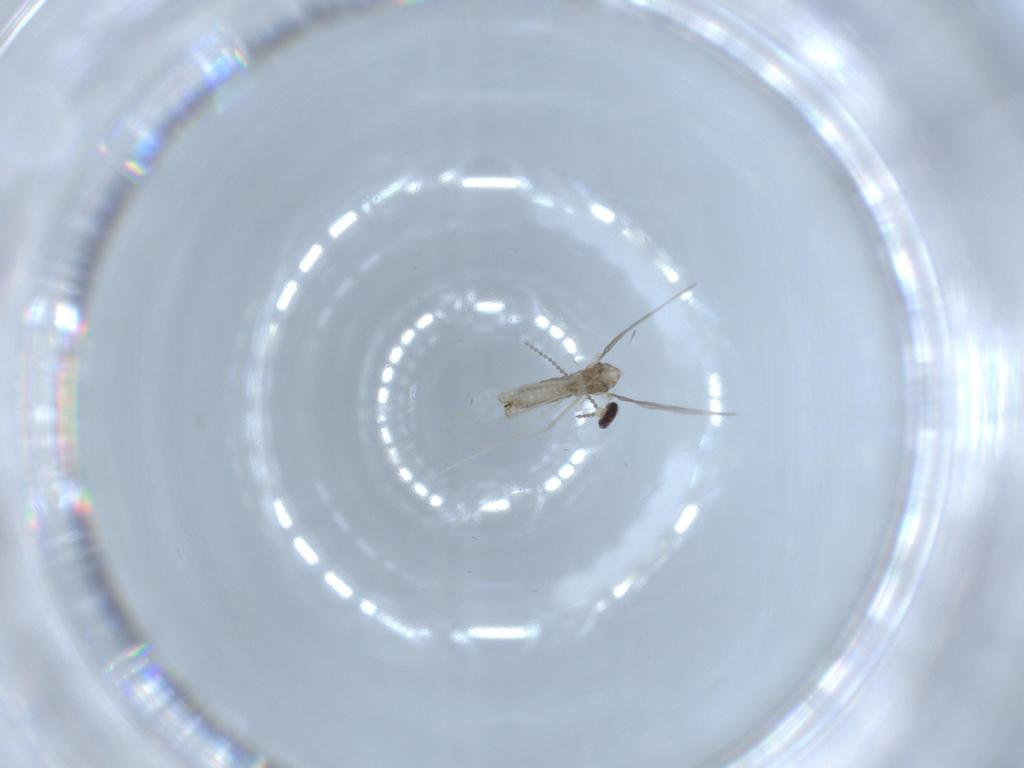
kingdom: Animalia
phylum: Arthropoda
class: Insecta
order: Diptera
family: Cecidomyiidae
